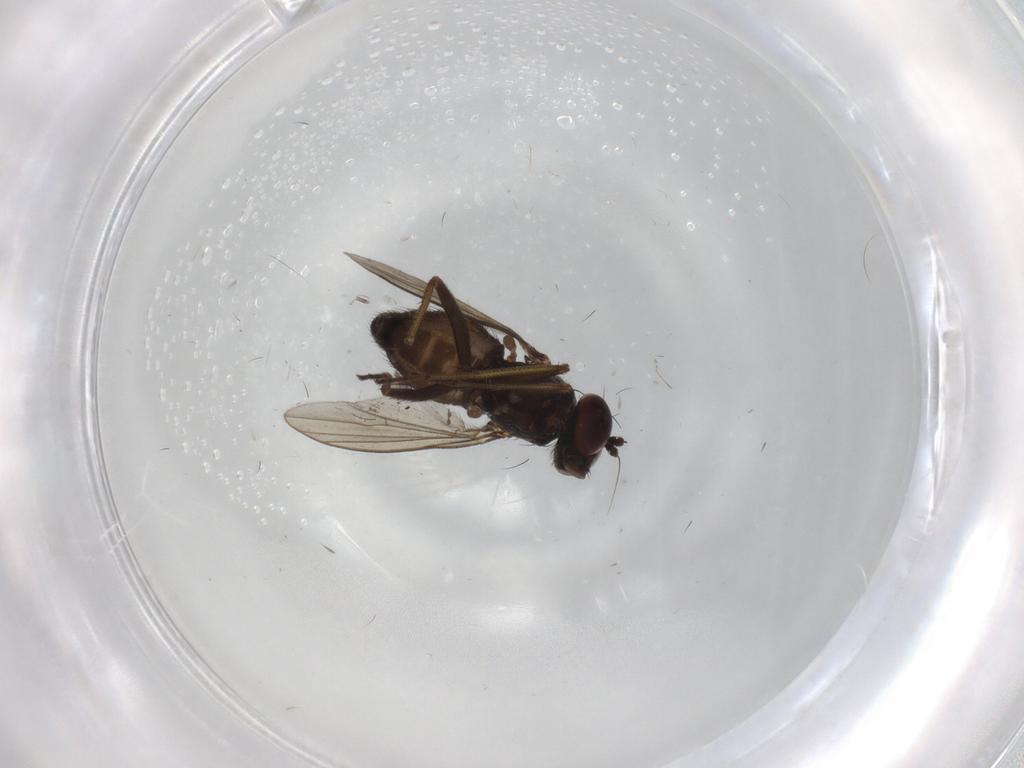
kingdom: Animalia
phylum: Arthropoda
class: Insecta
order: Diptera
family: Dolichopodidae
